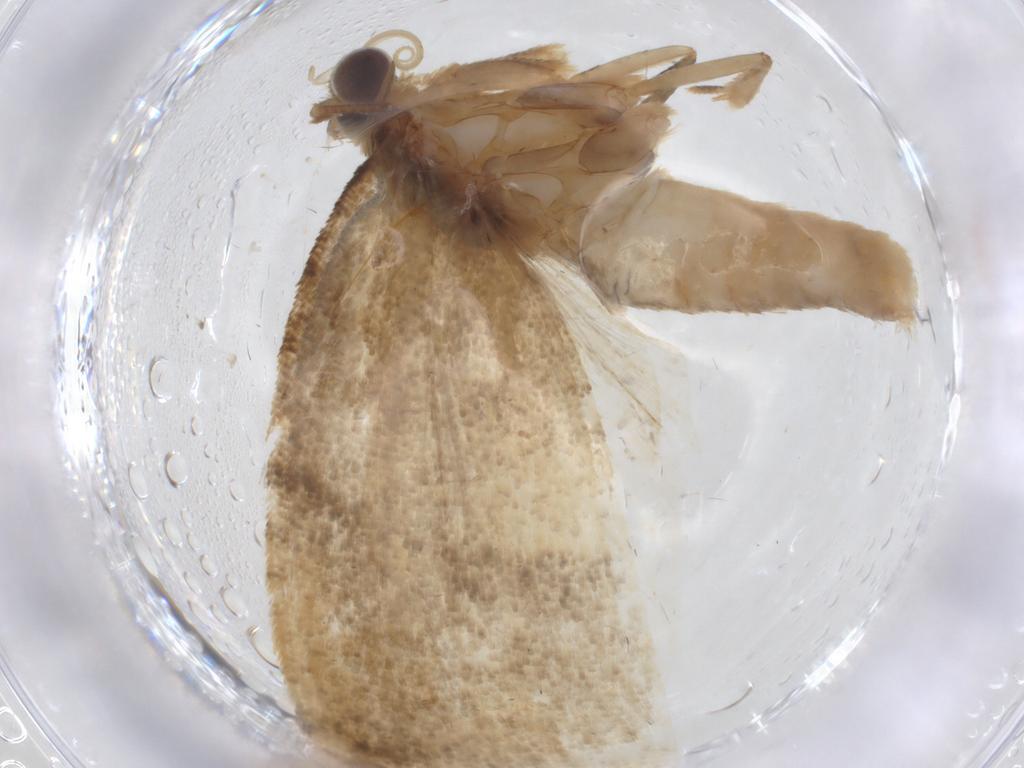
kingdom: Animalia
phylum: Arthropoda
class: Insecta
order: Lepidoptera
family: Tortricidae
